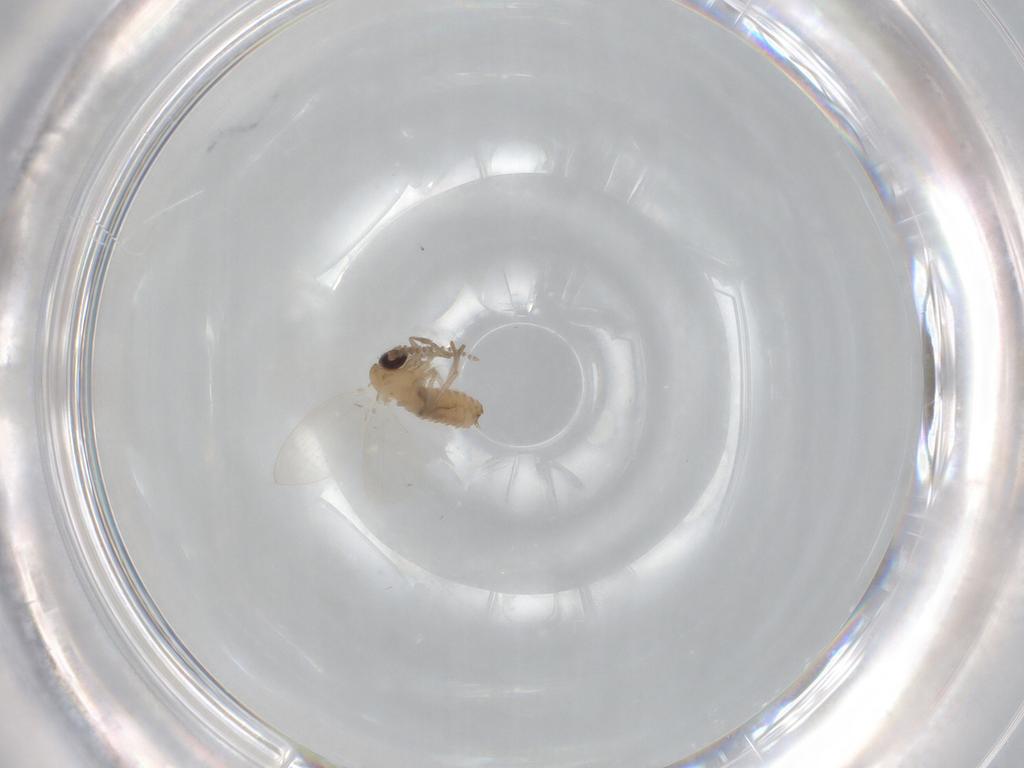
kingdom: Animalia
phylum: Arthropoda
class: Insecta
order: Diptera
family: Psychodidae
